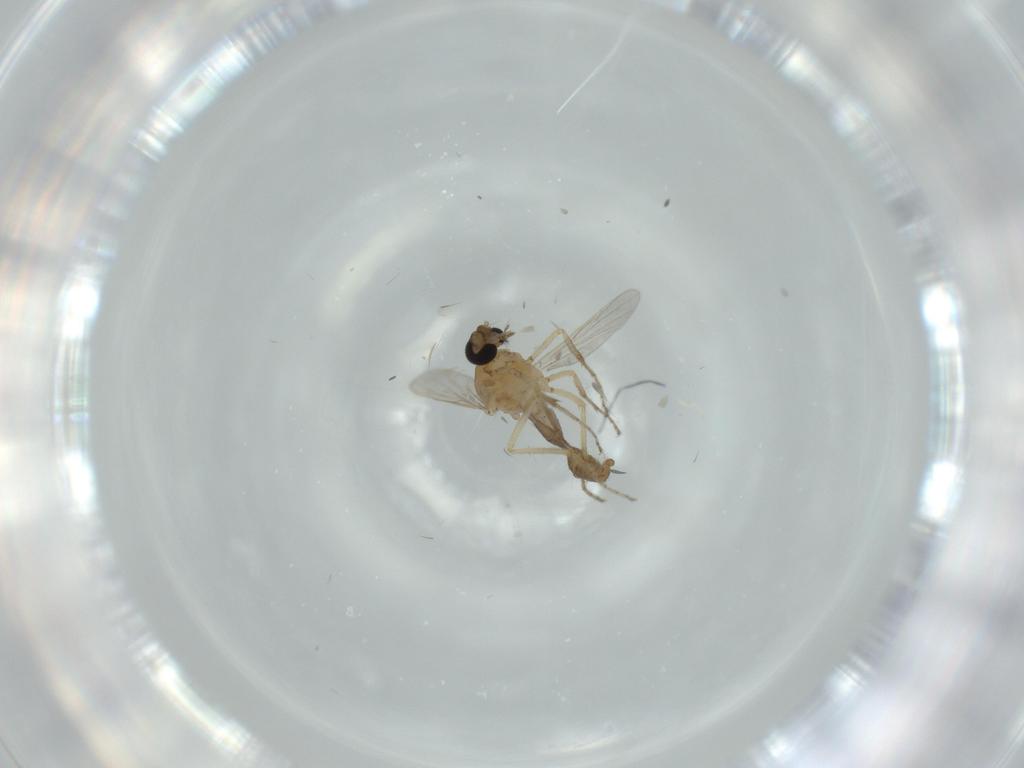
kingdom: Animalia
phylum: Arthropoda
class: Insecta
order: Diptera
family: Ceratopogonidae
